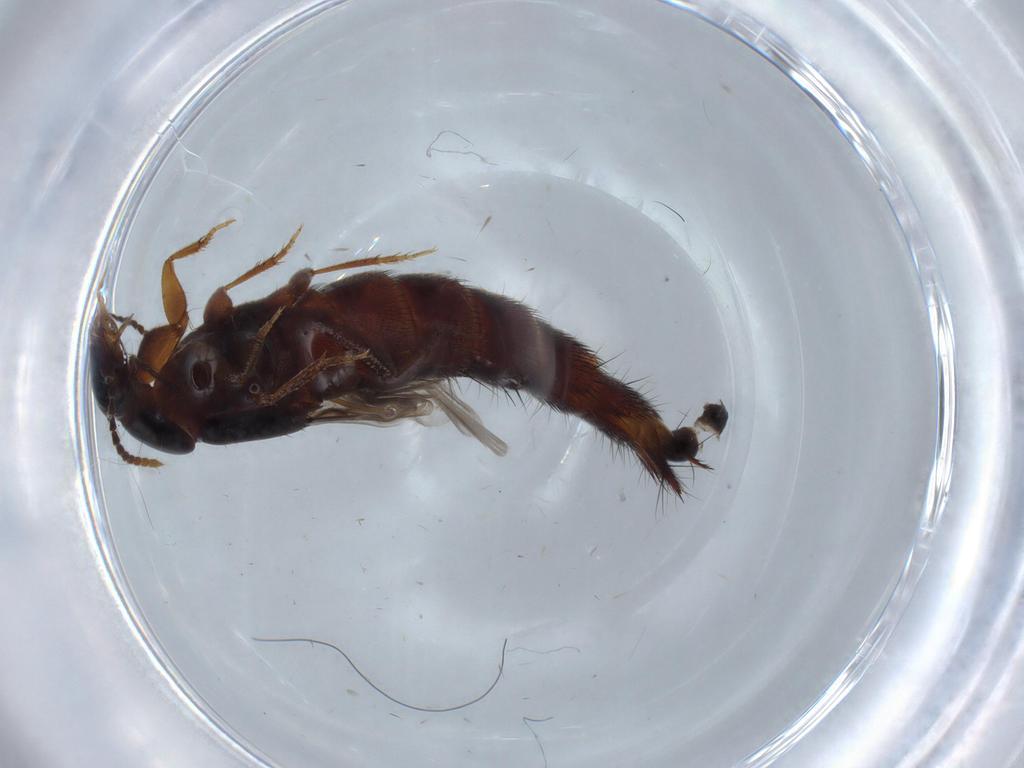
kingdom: Animalia
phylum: Arthropoda
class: Insecta
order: Coleoptera
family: Staphylinidae
